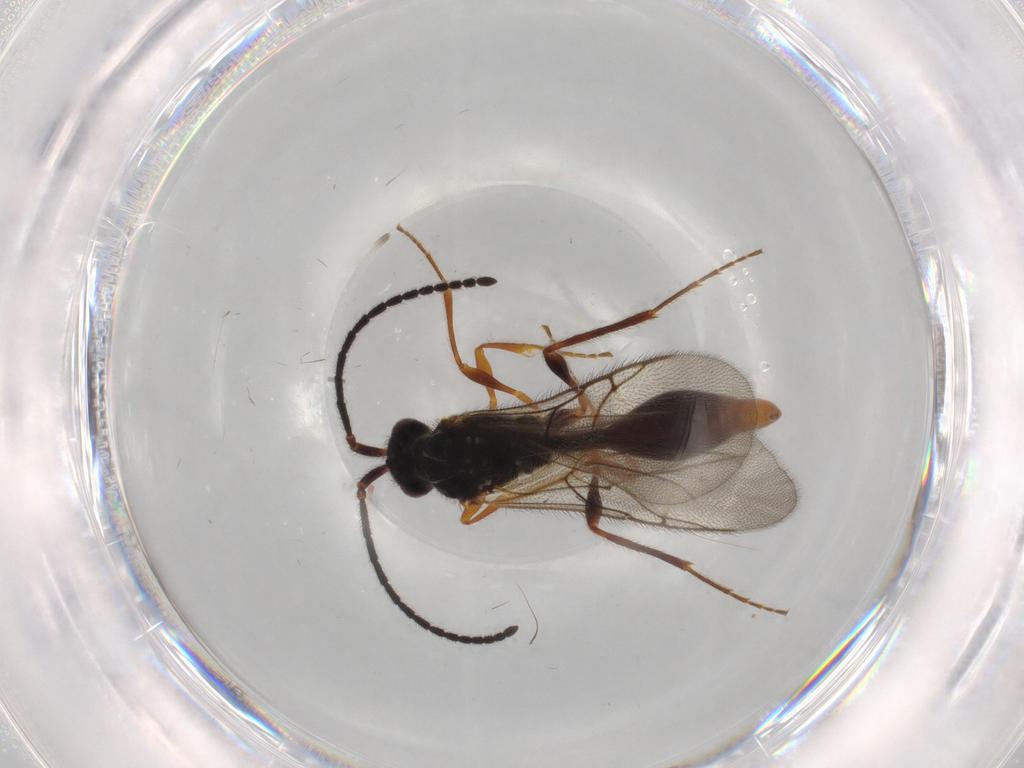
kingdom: Animalia
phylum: Arthropoda
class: Insecta
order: Hymenoptera
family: Diapriidae
